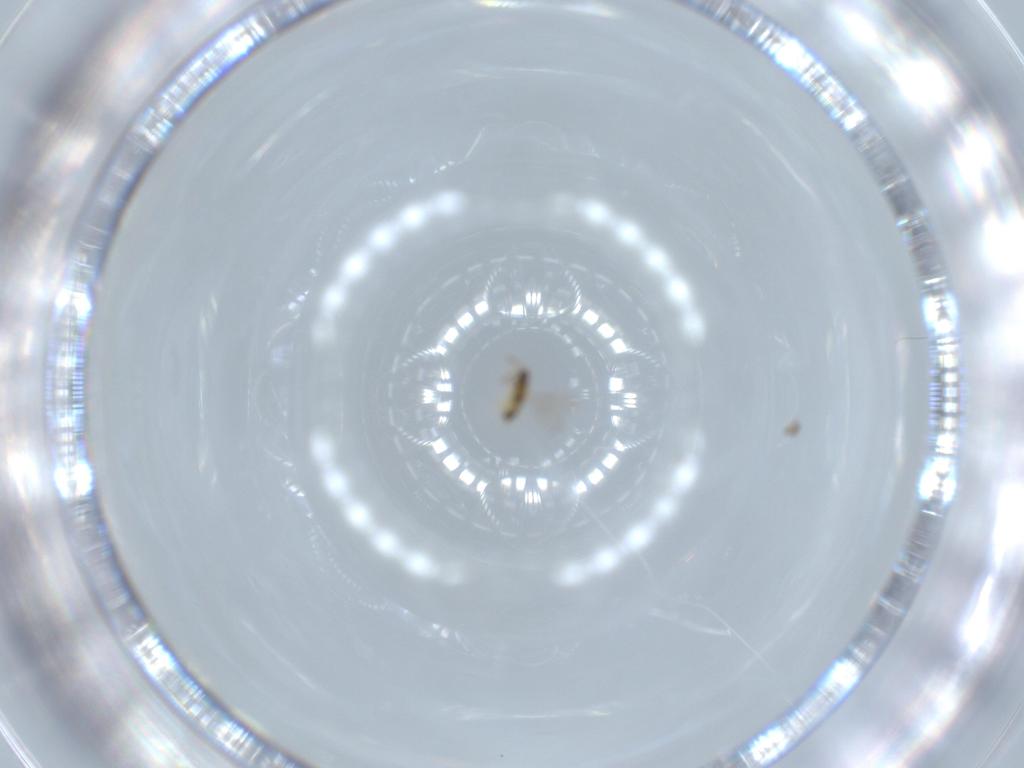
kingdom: Animalia
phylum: Arthropoda
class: Insecta
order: Hymenoptera
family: Aphelinidae
